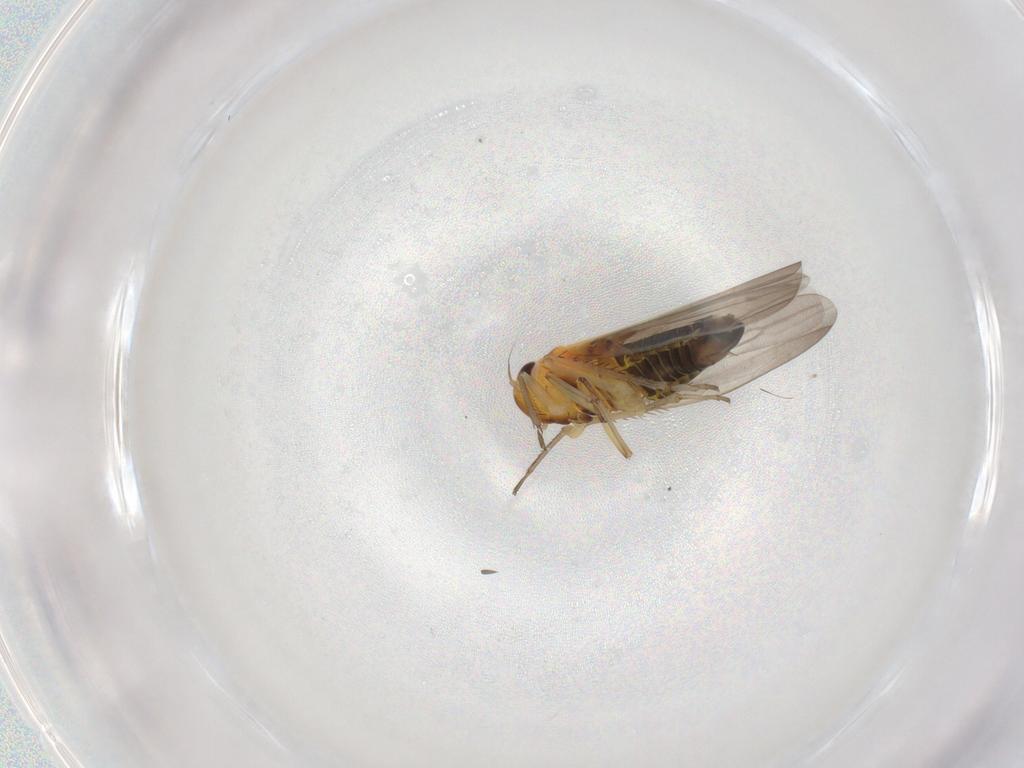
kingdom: Animalia
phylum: Arthropoda
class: Insecta
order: Hemiptera
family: Cicadellidae
